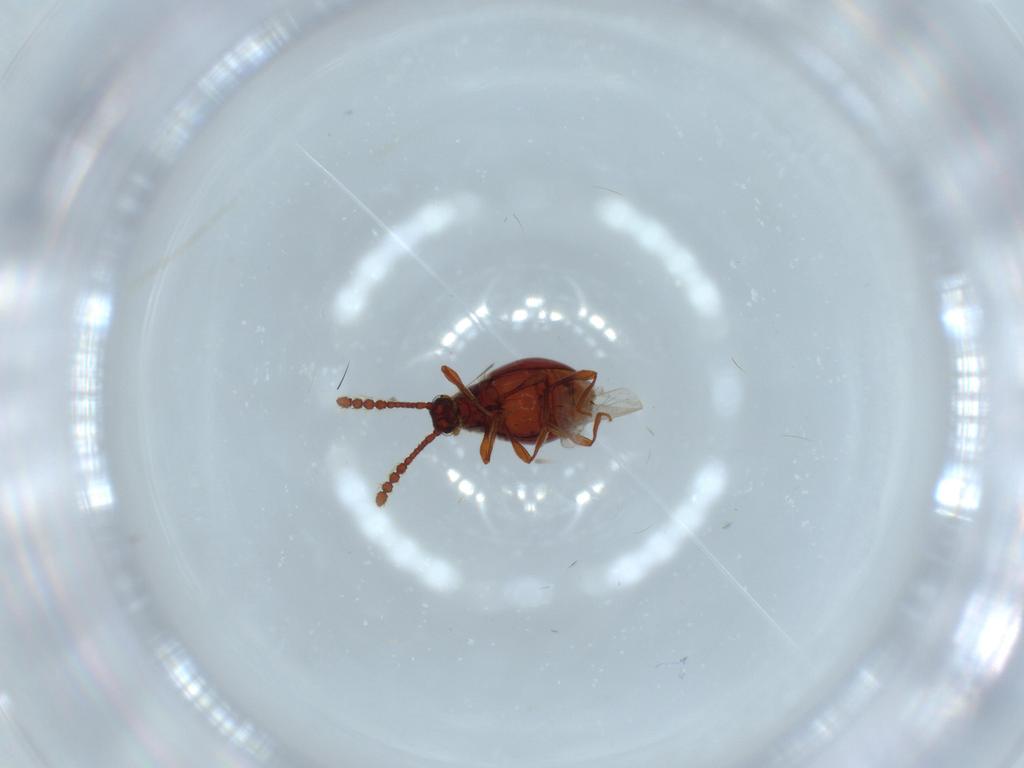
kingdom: Animalia
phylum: Arthropoda
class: Insecta
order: Coleoptera
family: Staphylinidae
